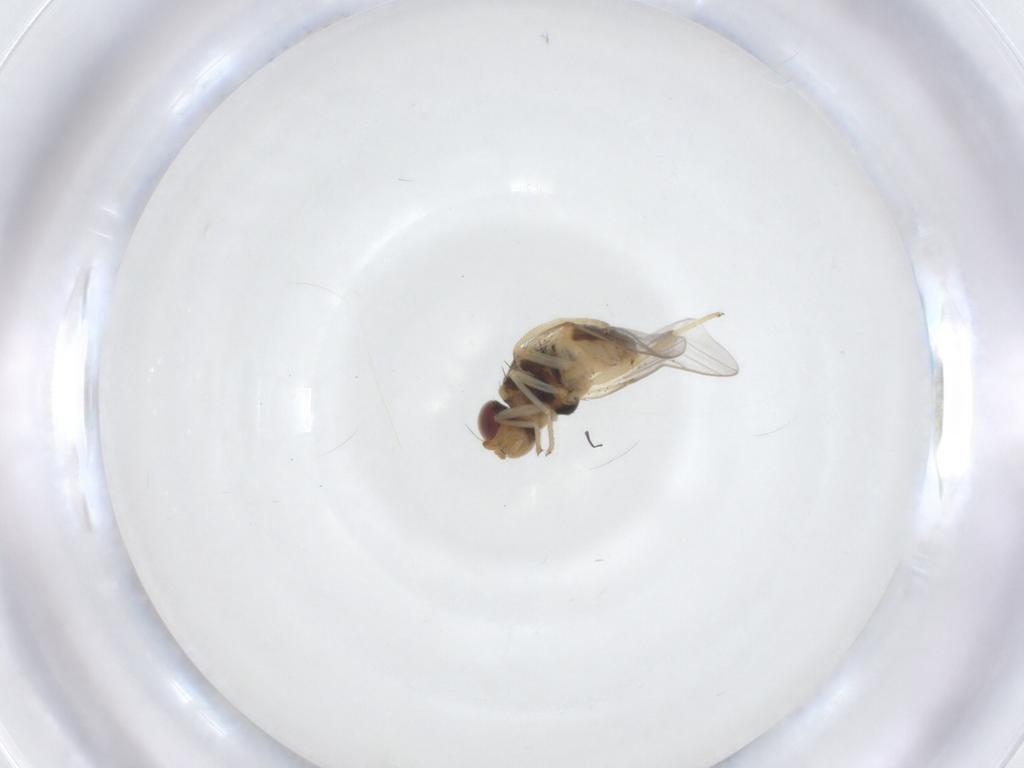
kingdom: Animalia
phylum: Arthropoda
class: Insecta
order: Diptera
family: Chloropidae
